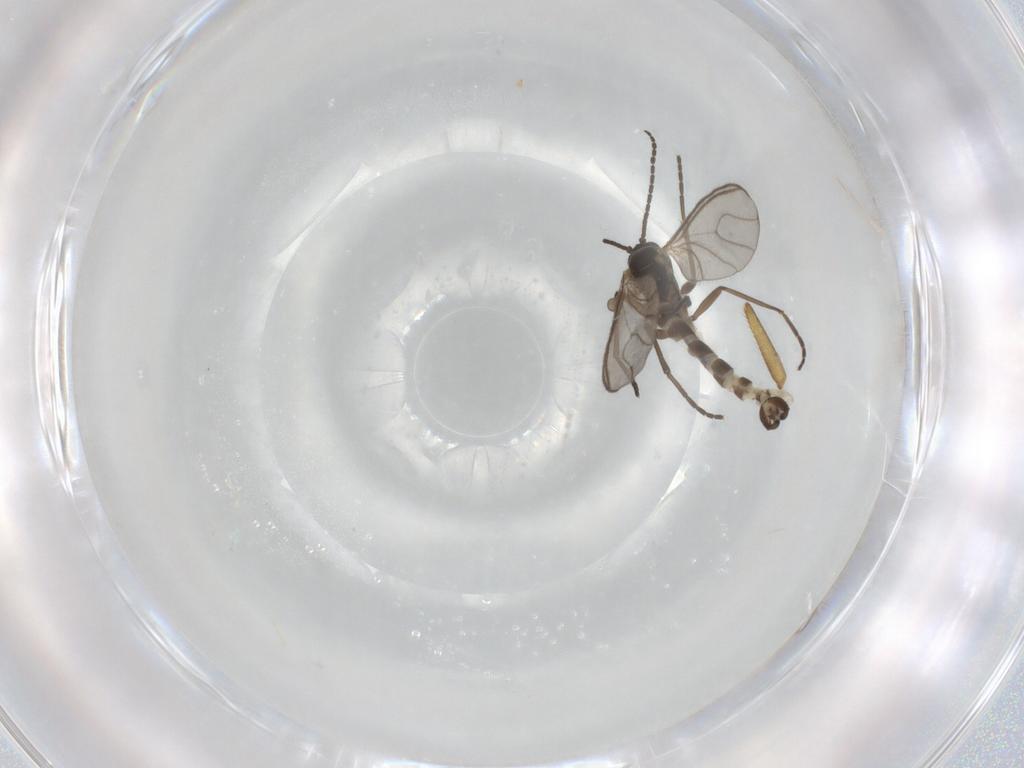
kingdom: Animalia
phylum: Arthropoda
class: Insecta
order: Diptera
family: Sciaridae
